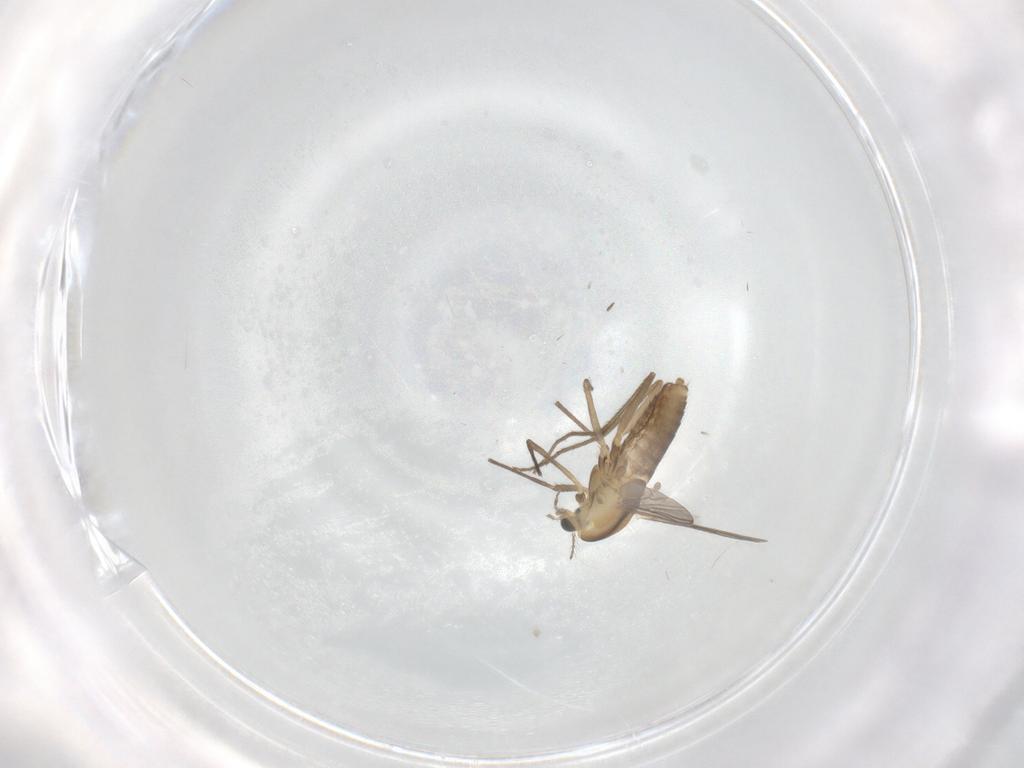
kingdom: Animalia
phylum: Arthropoda
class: Insecta
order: Diptera
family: Chironomidae
